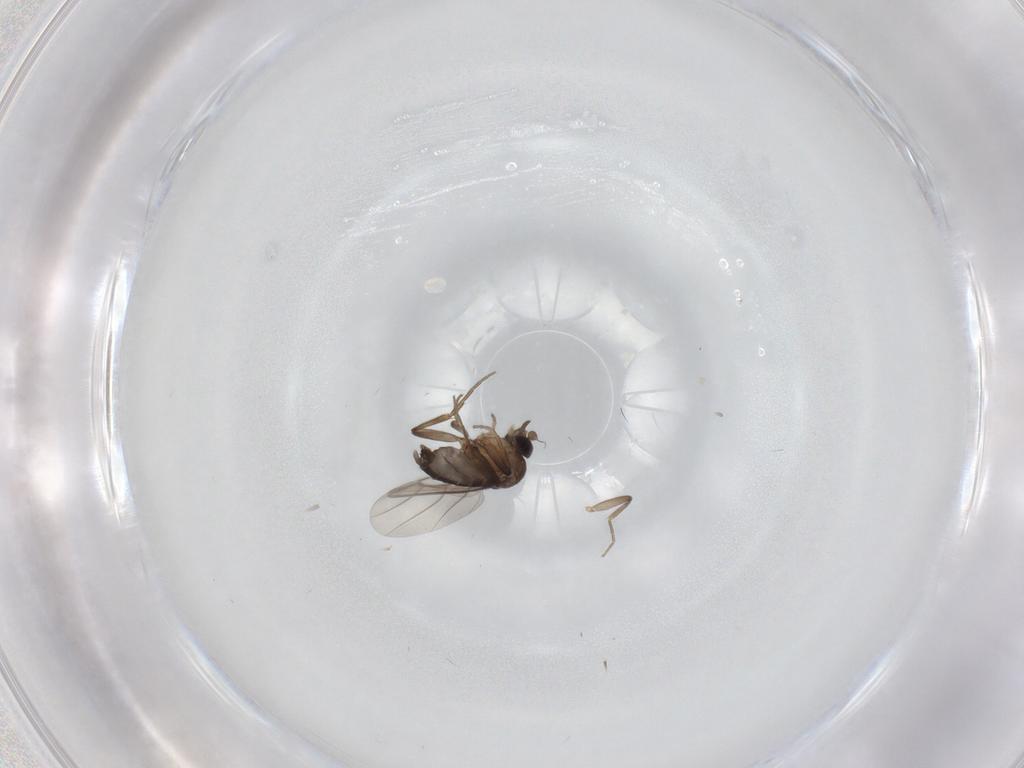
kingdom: Animalia
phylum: Arthropoda
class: Insecta
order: Diptera
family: Phoridae
